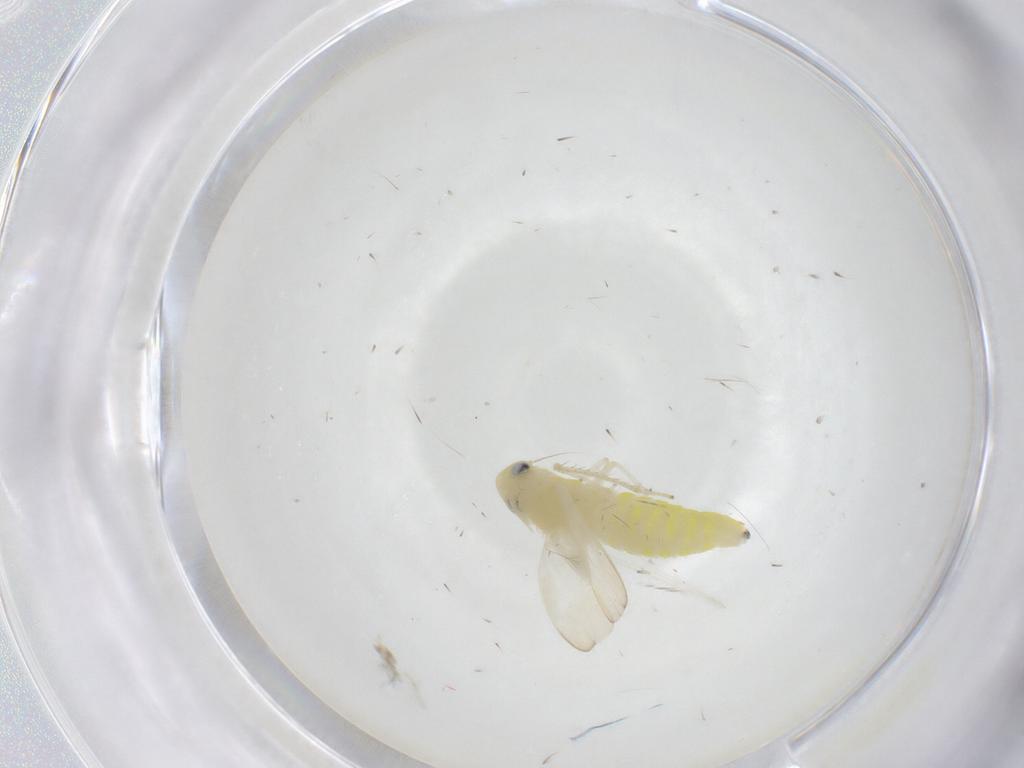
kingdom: Animalia
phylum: Arthropoda
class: Insecta
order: Hemiptera
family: Cicadellidae
